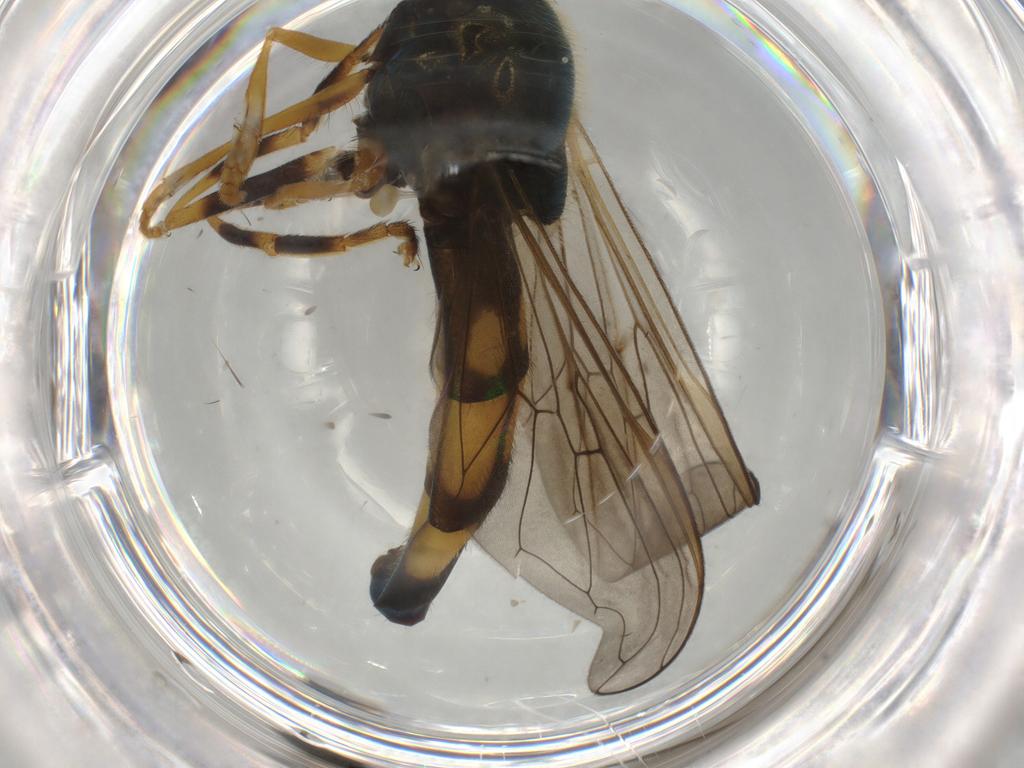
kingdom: Animalia
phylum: Arthropoda
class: Insecta
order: Diptera
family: Syrphidae
